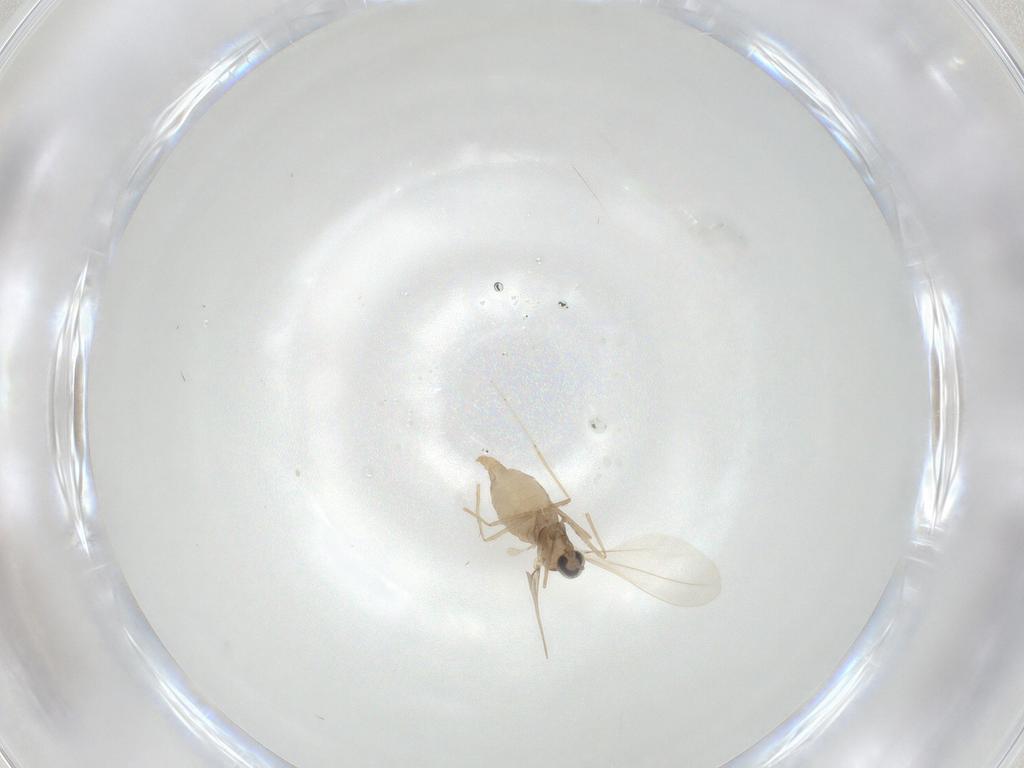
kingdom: Animalia
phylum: Arthropoda
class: Insecta
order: Diptera
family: Cecidomyiidae
